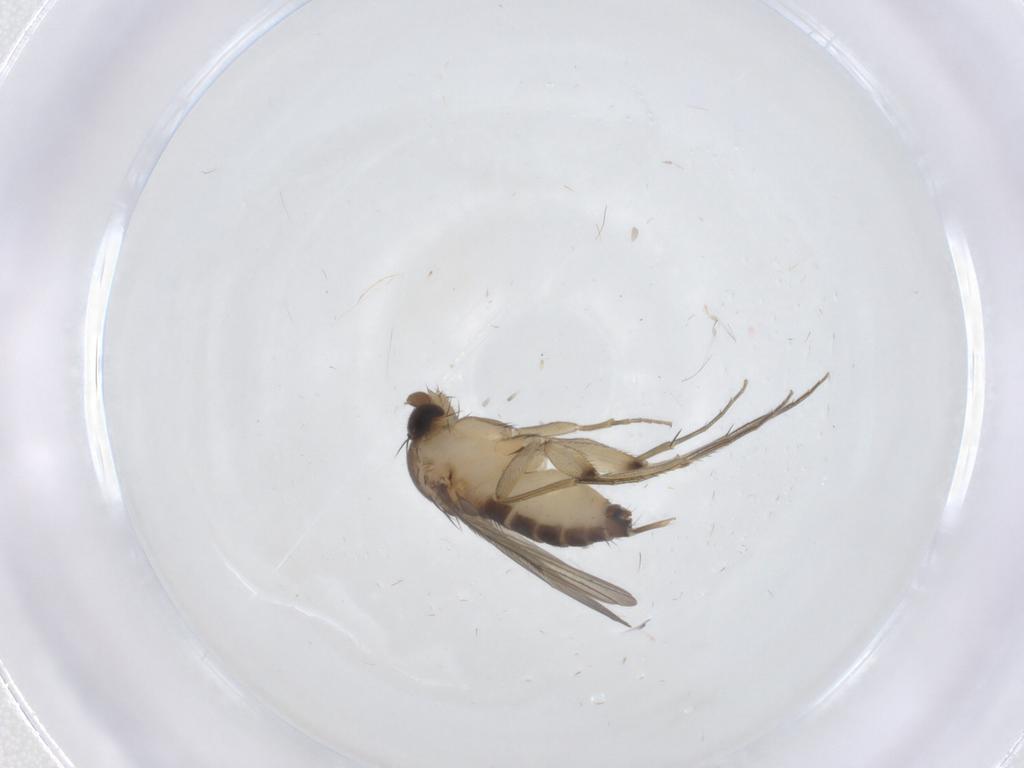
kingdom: Animalia
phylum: Arthropoda
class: Insecta
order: Diptera
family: Phoridae
